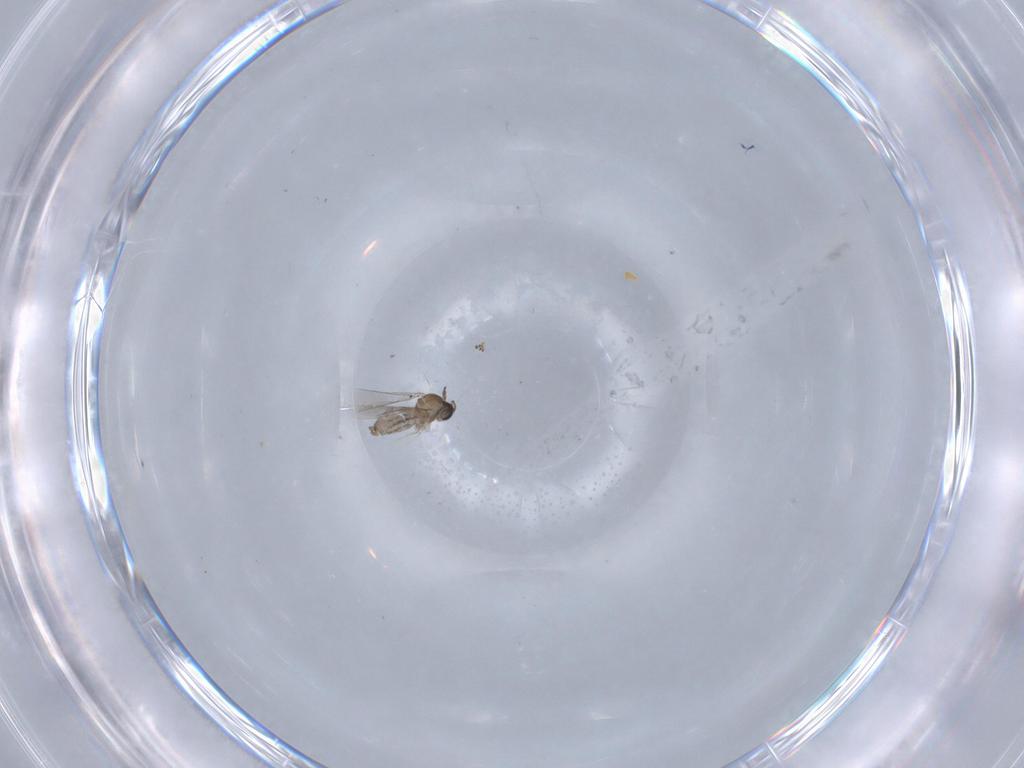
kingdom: Animalia
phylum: Arthropoda
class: Insecta
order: Diptera
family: Cecidomyiidae
